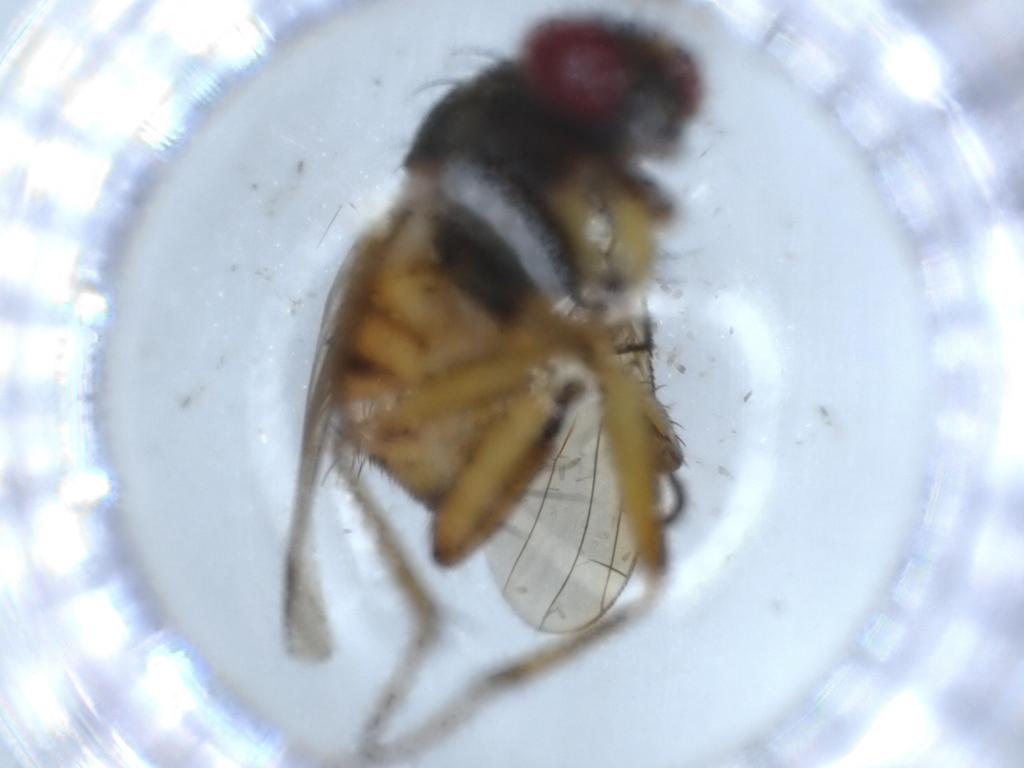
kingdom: Animalia
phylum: Arthropoda
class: Insecta
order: Diptera
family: Muscidae
